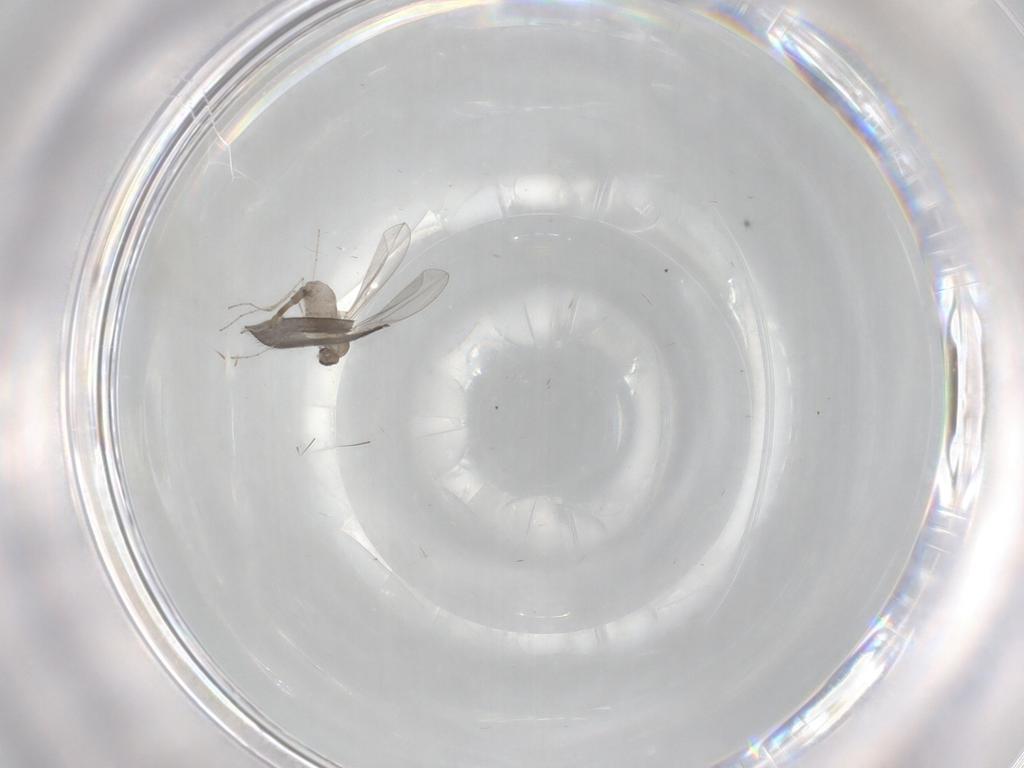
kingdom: Animalia
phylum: Arthropoda
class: Insecta
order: Diptera
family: Cecidomyiidae
